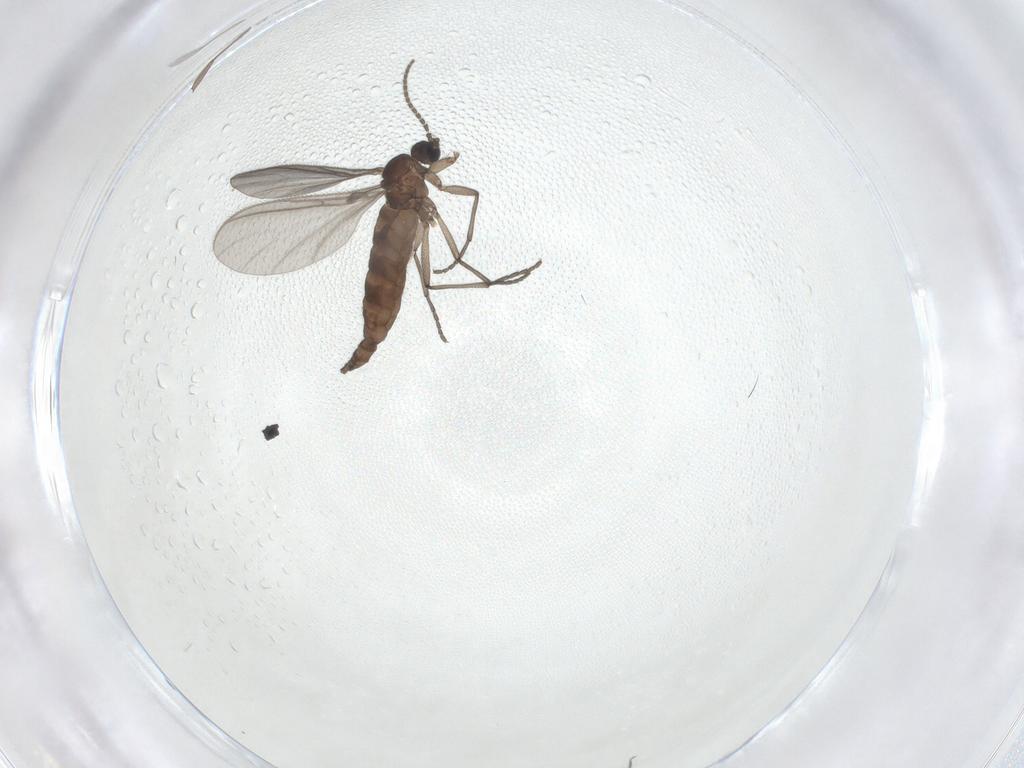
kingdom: Animalia
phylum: Arthropoda
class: Insecta
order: Diptera
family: Sciaridae
